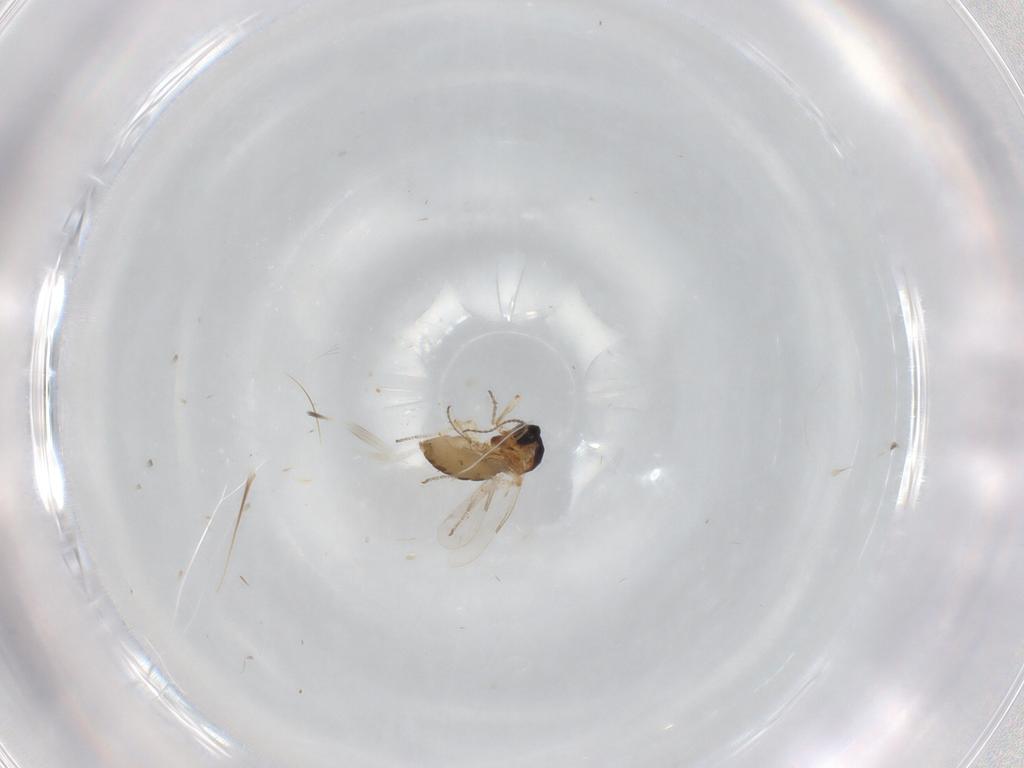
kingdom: Animalia
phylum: Arthropoda
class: Insecta
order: Diptera
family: Ceratopogonidae
